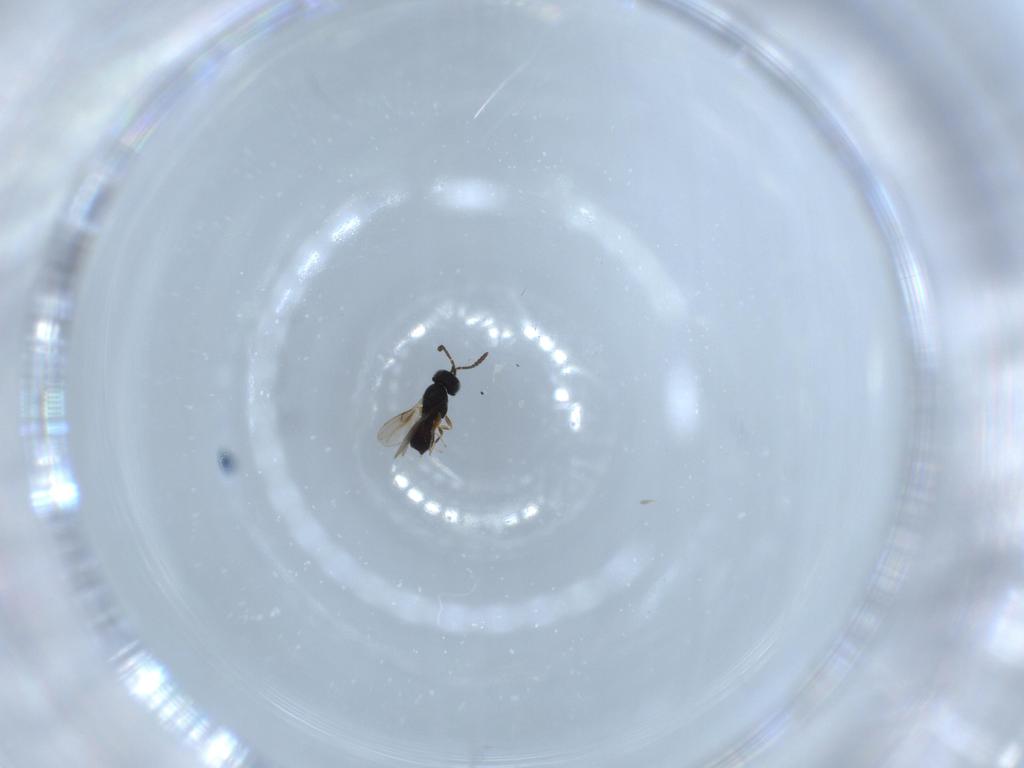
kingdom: Animalia
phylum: Arthropoda
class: Insecta
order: Hymenoptera
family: Scelionidae
